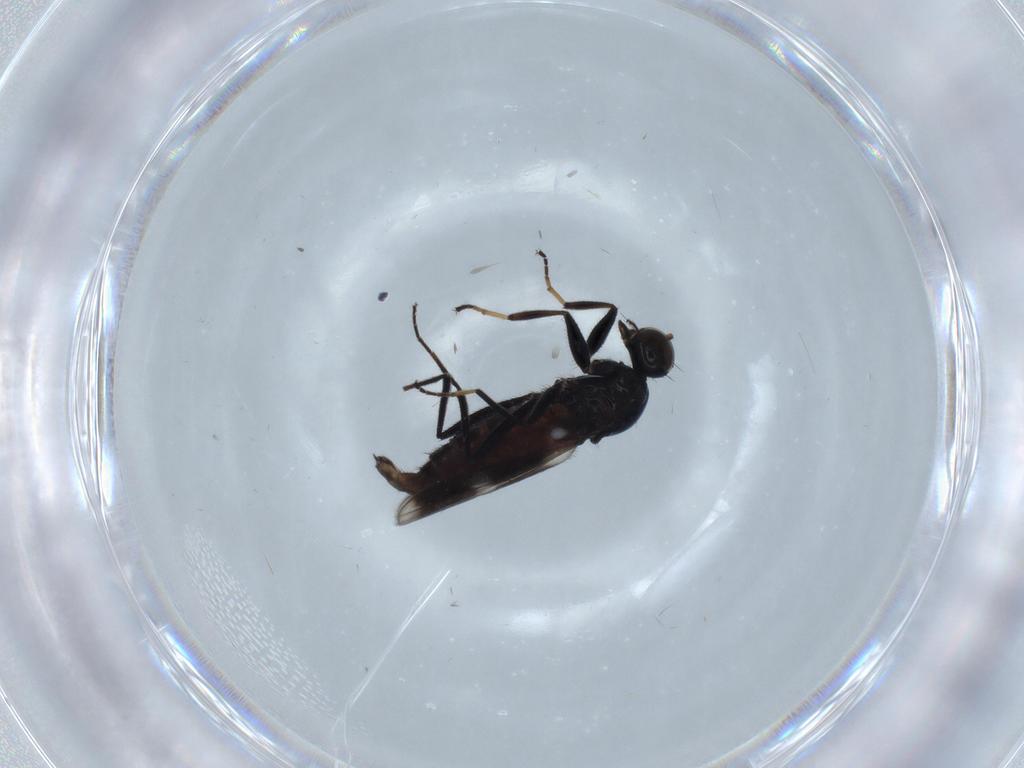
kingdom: Animalia
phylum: Arthropoda
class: Insecta
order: Diptera
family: Hybotidae
